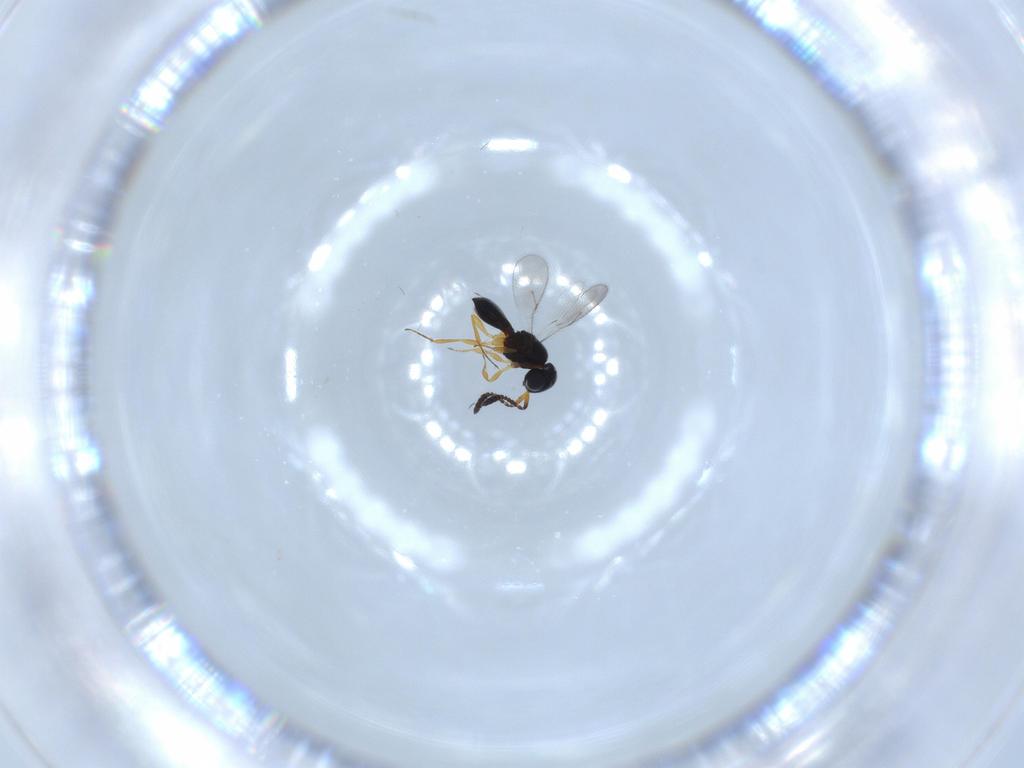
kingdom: Animalia
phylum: Arthropoda
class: Insecta
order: Hymenoptera
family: Scelionidae
